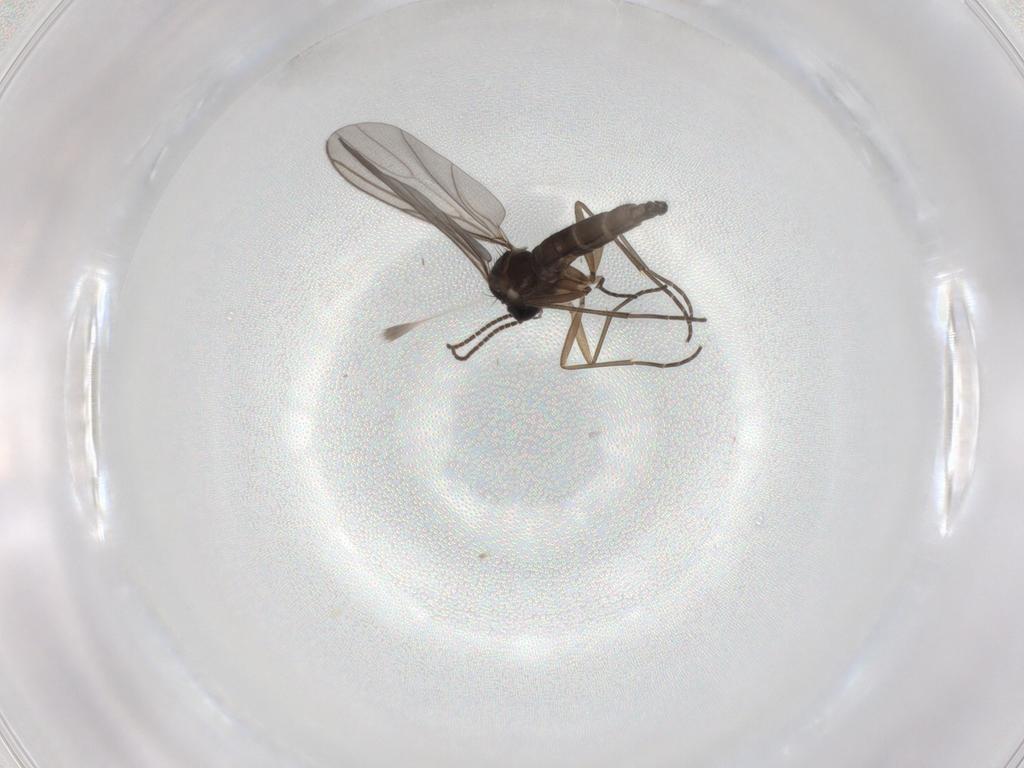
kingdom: Animalia
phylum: Arthropoda
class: Insecta
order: Diptera
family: Sciaridae
